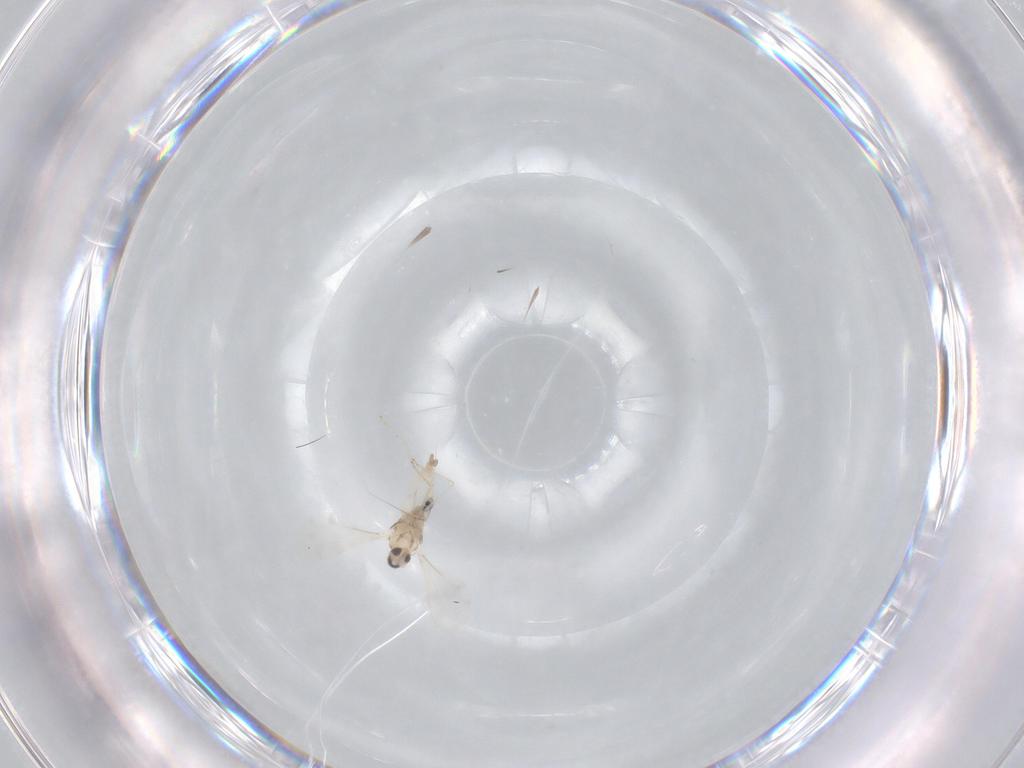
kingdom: Animalia
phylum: Arthropoda
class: Insecta
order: Diptera
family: Cecidomyiidae
